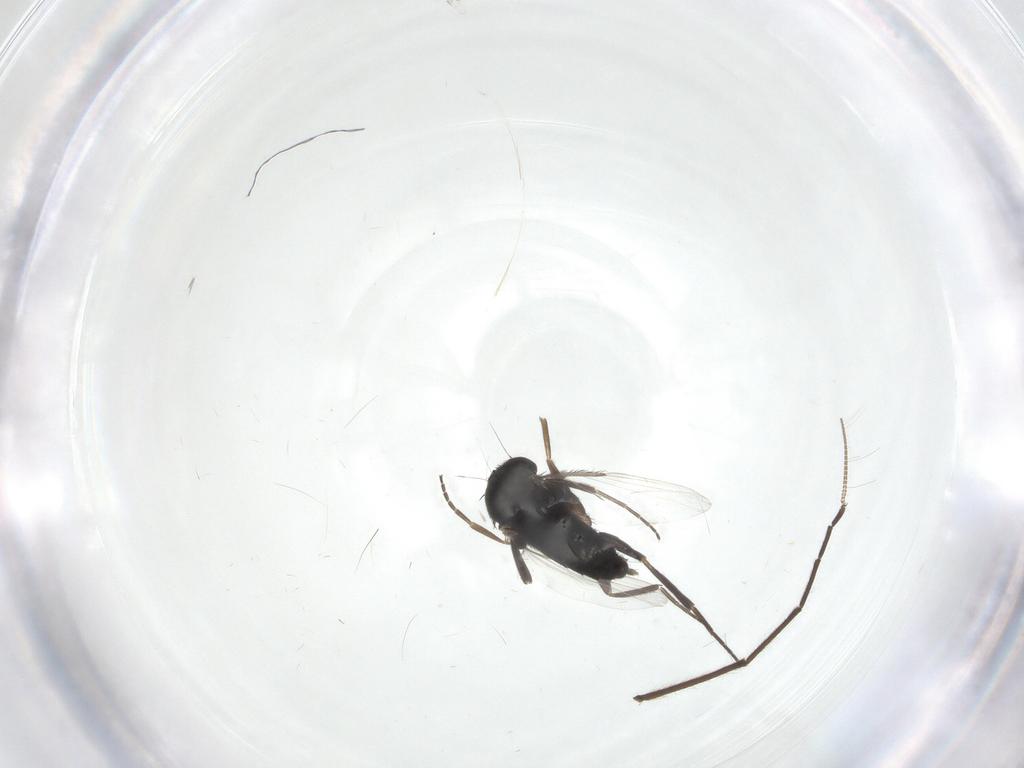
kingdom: Animalia
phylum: Arthropoda
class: Insecta
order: Diptera
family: Phoridae
